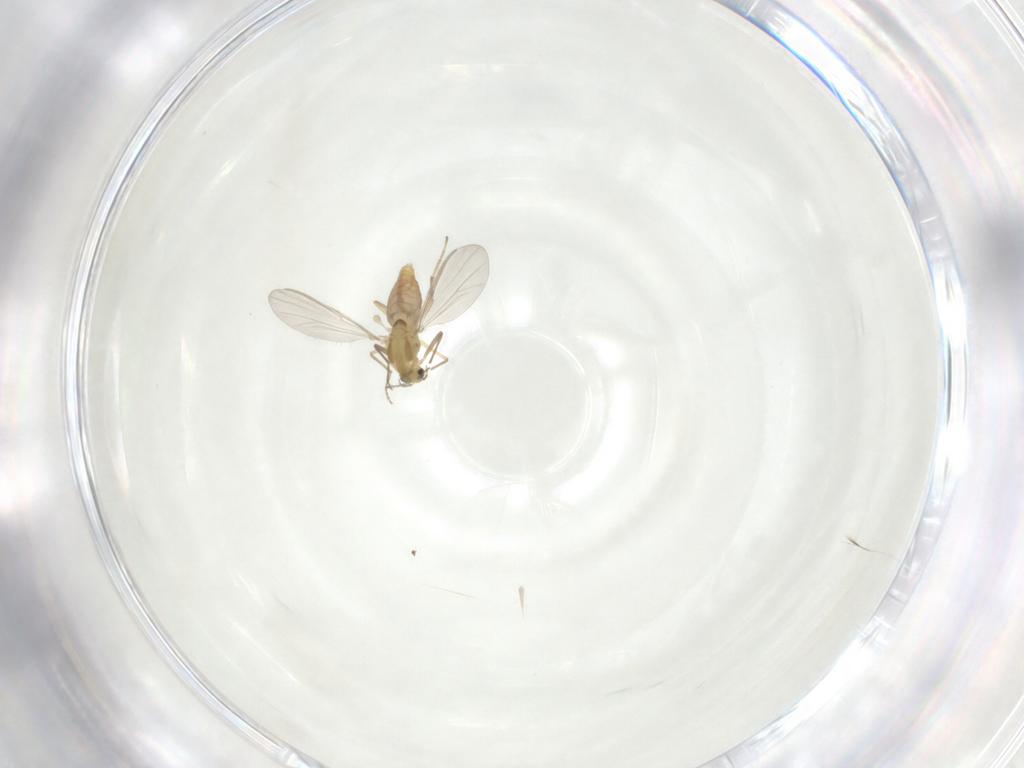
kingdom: Animalia
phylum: Arthropoda
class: Insecta
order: Diptera
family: Chironomidae
